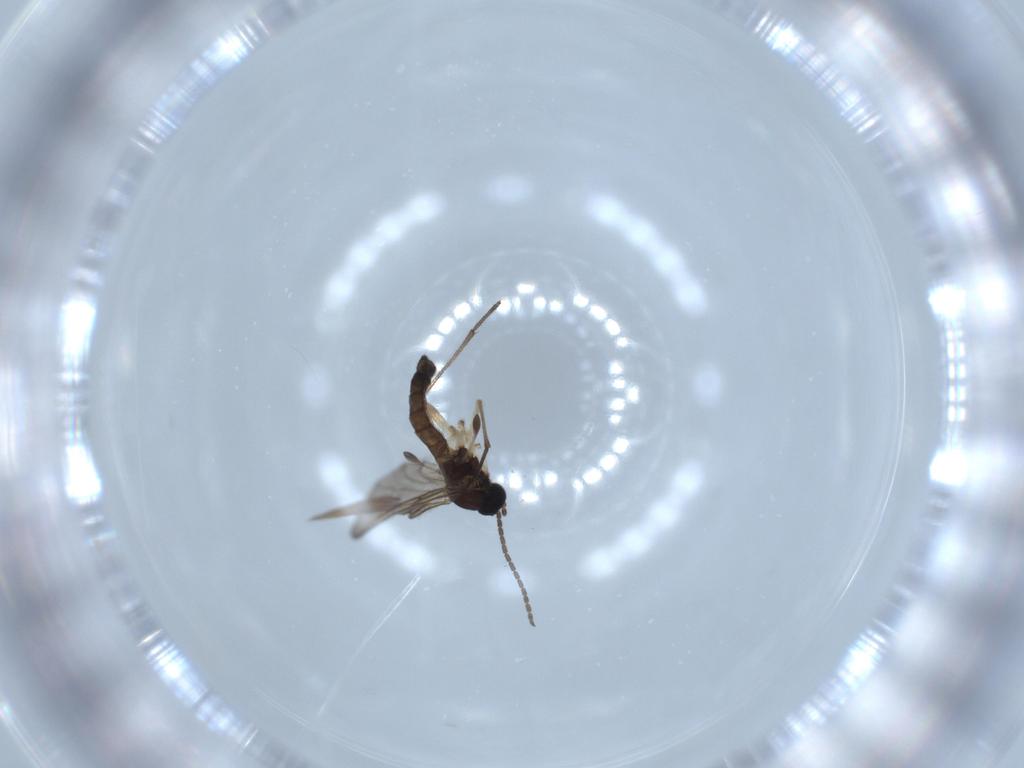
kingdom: Animalia
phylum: Arthropoda
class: Insecta
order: Diptera
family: Sciaridae
